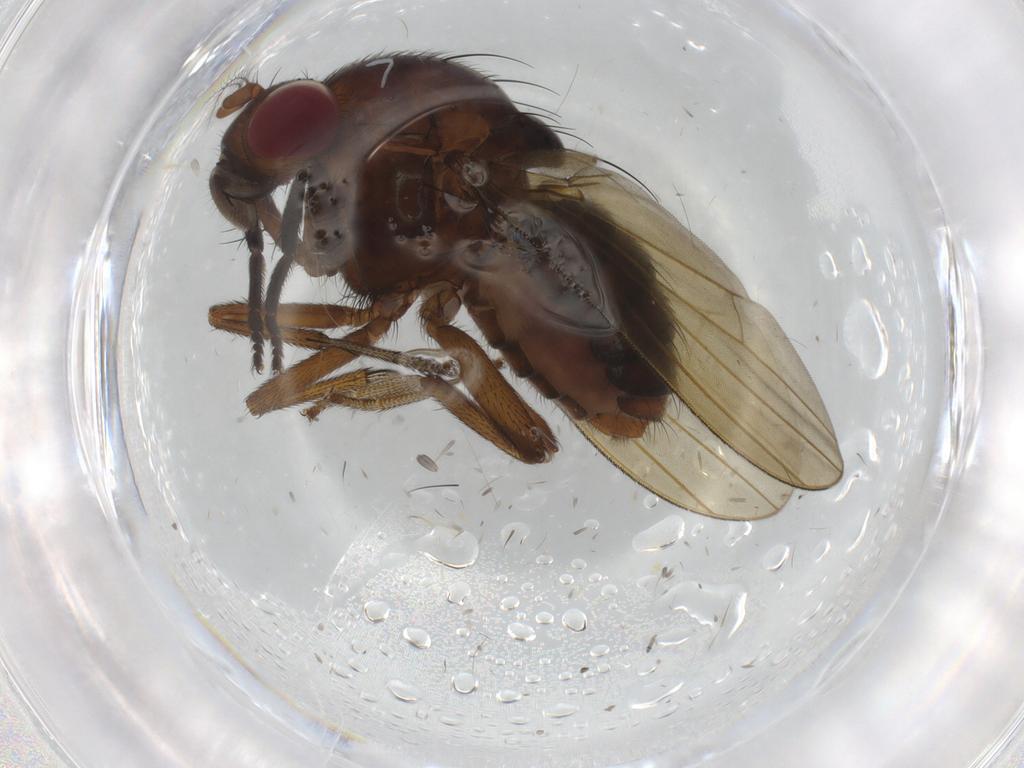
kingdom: Animalia
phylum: Arthropoda
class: Insecta
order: Diptera
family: Lauxaniidae
